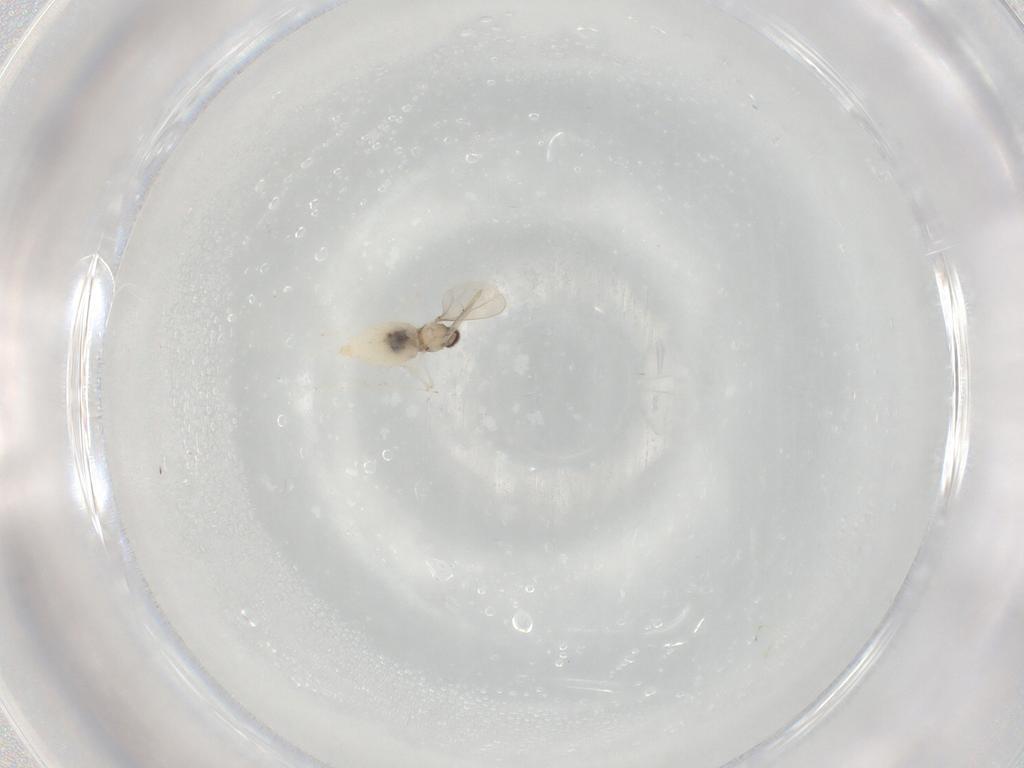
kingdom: Animalia
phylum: Arthropoda
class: Insecta
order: Diptera
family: Cecidomyiidae
